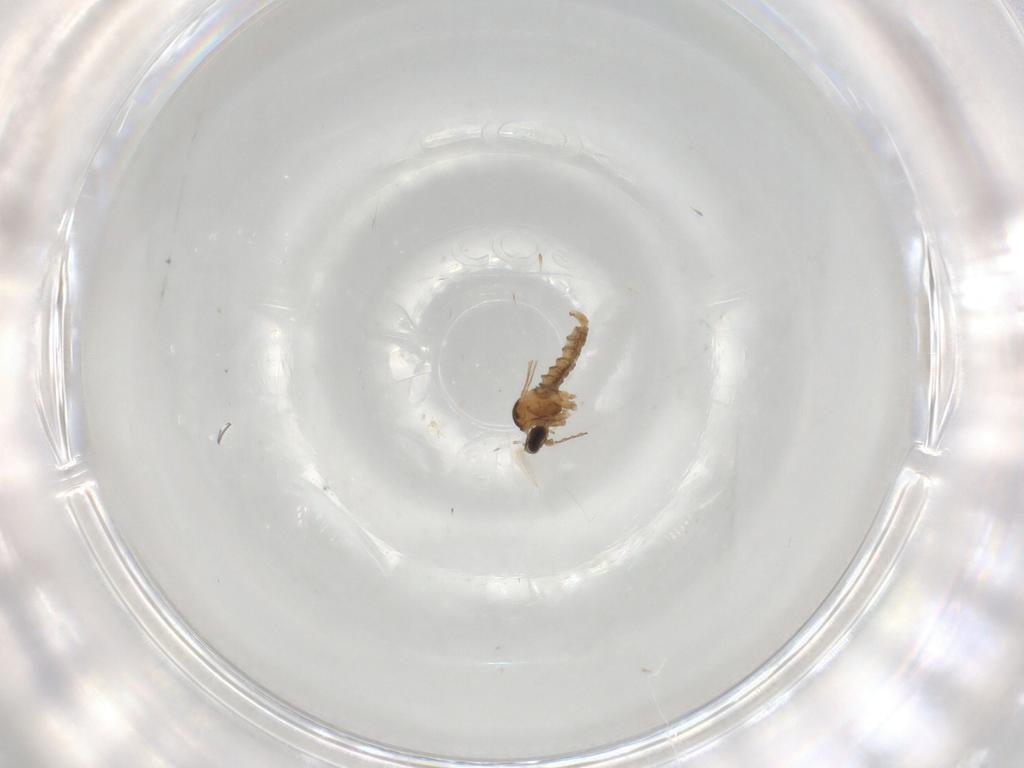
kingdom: Animalia
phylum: Arthropoda
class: Insecta
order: Diptera
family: Cecidomyiidae
